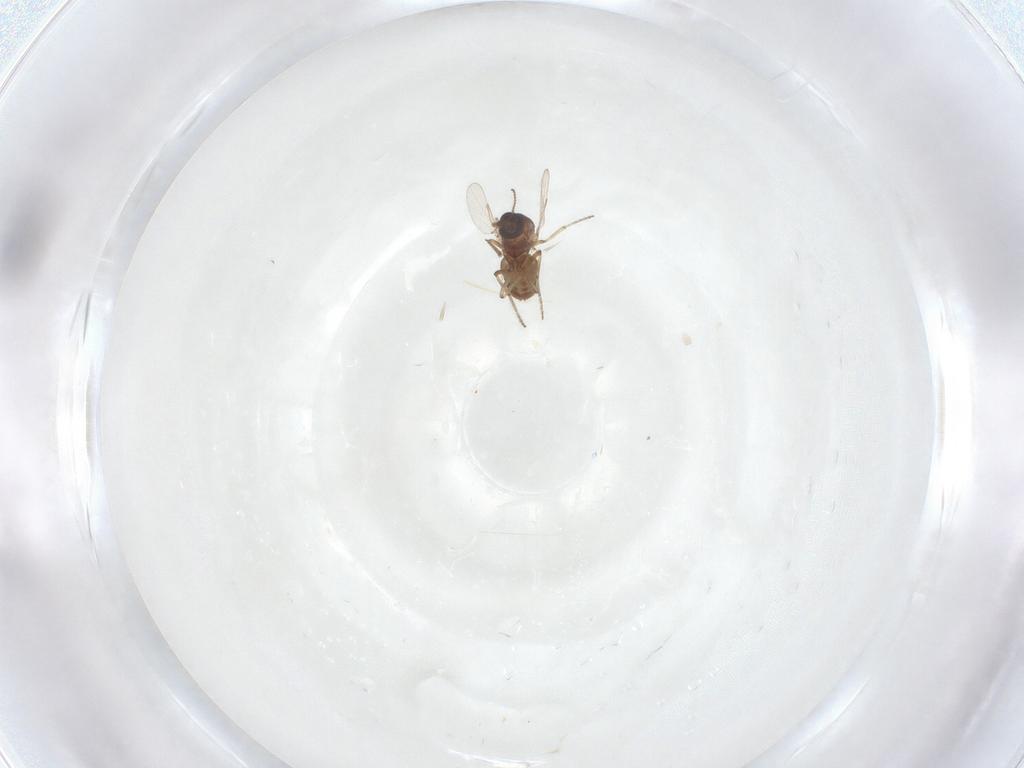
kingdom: Animalia
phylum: Arthropoda
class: Insecta
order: Diptera
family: Ceratopogonidae
